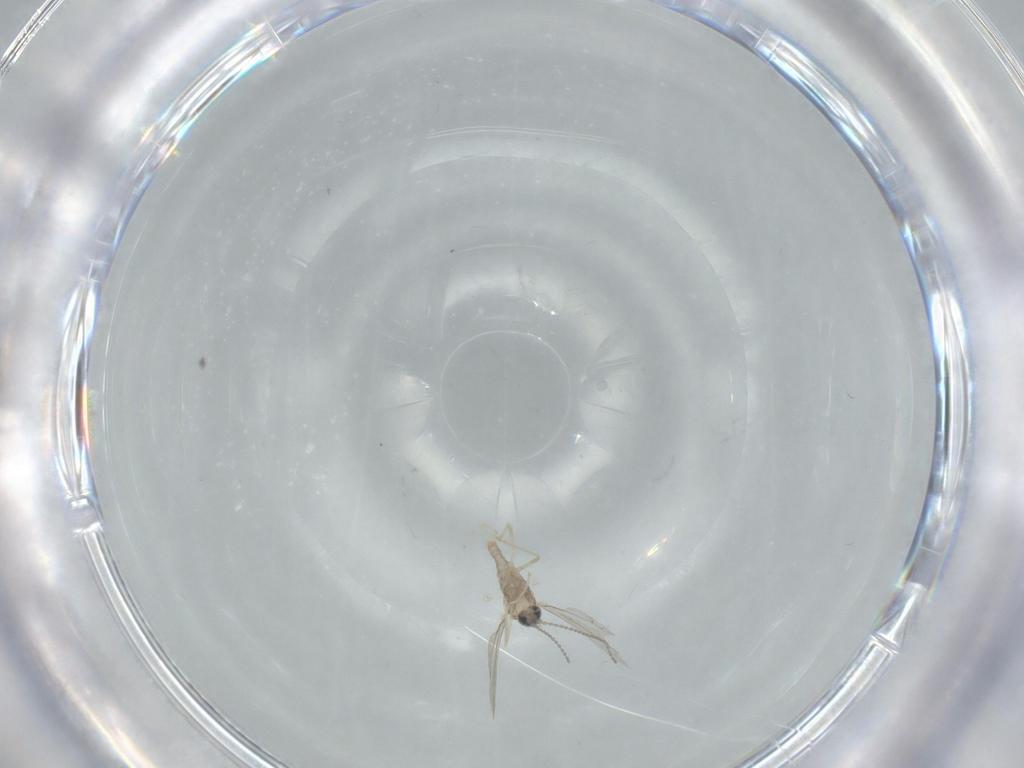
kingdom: Animalia
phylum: Arthropoda
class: Insecta
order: Diptera
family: Cecidomyiidae
